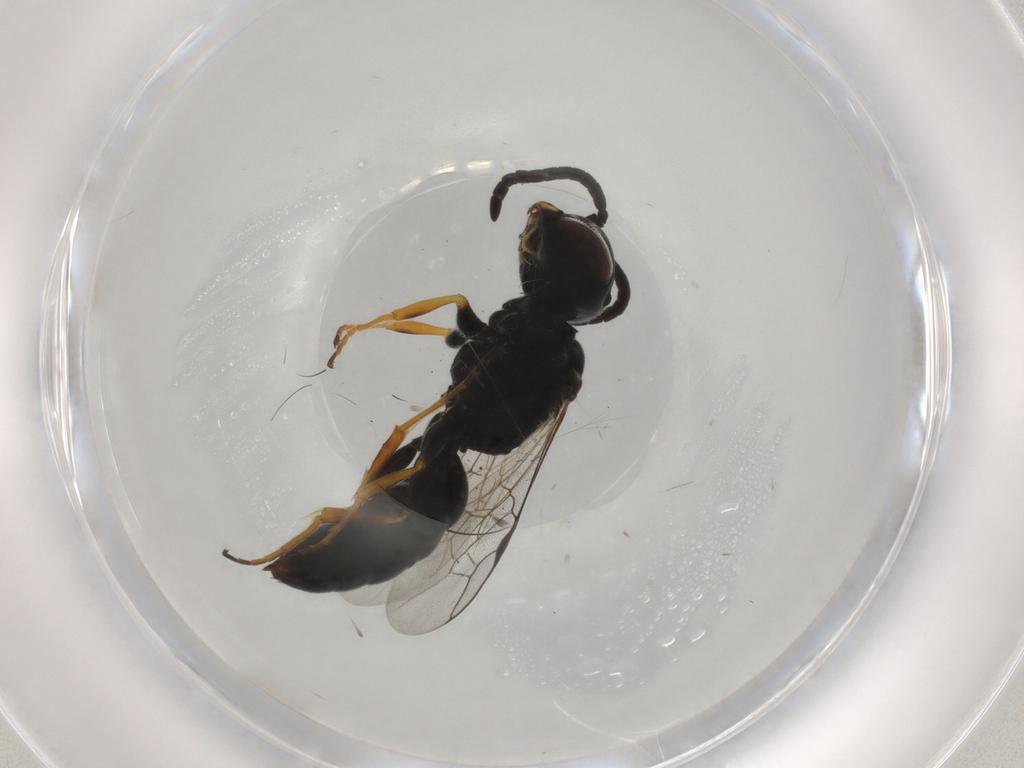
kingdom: Animalia
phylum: Arthropoda
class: Insecta
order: Hymenoptera
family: Pemphredonidae
